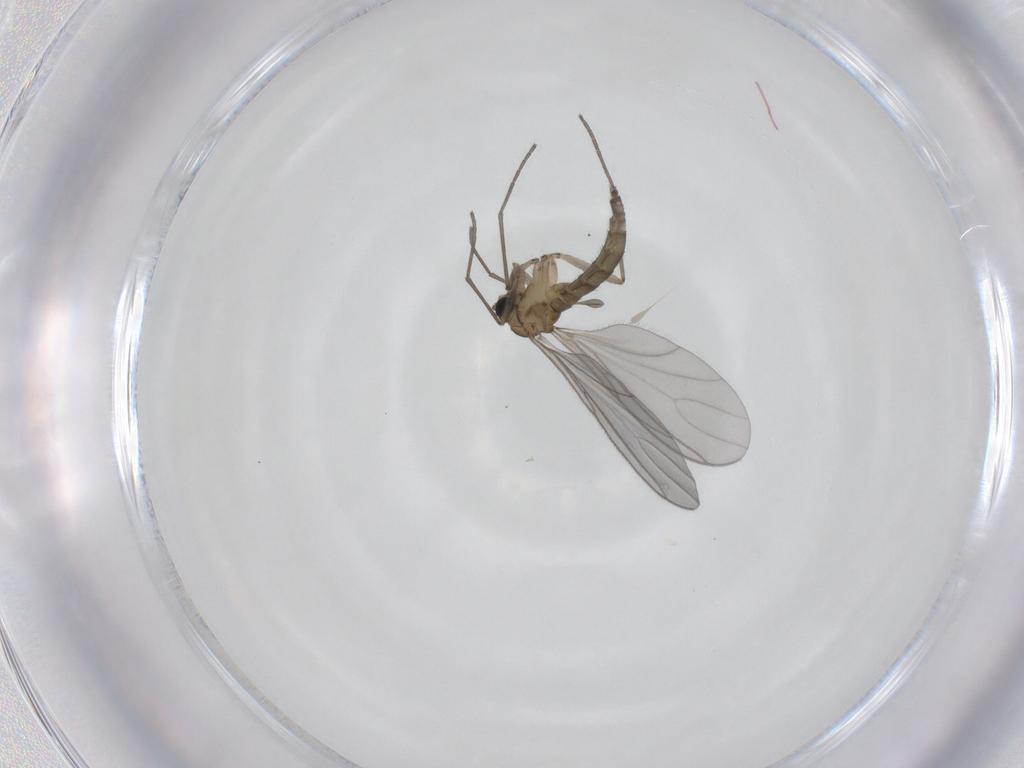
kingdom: Animalia
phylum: Arthropoda
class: Insecta
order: Diptera
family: Sciaridae
